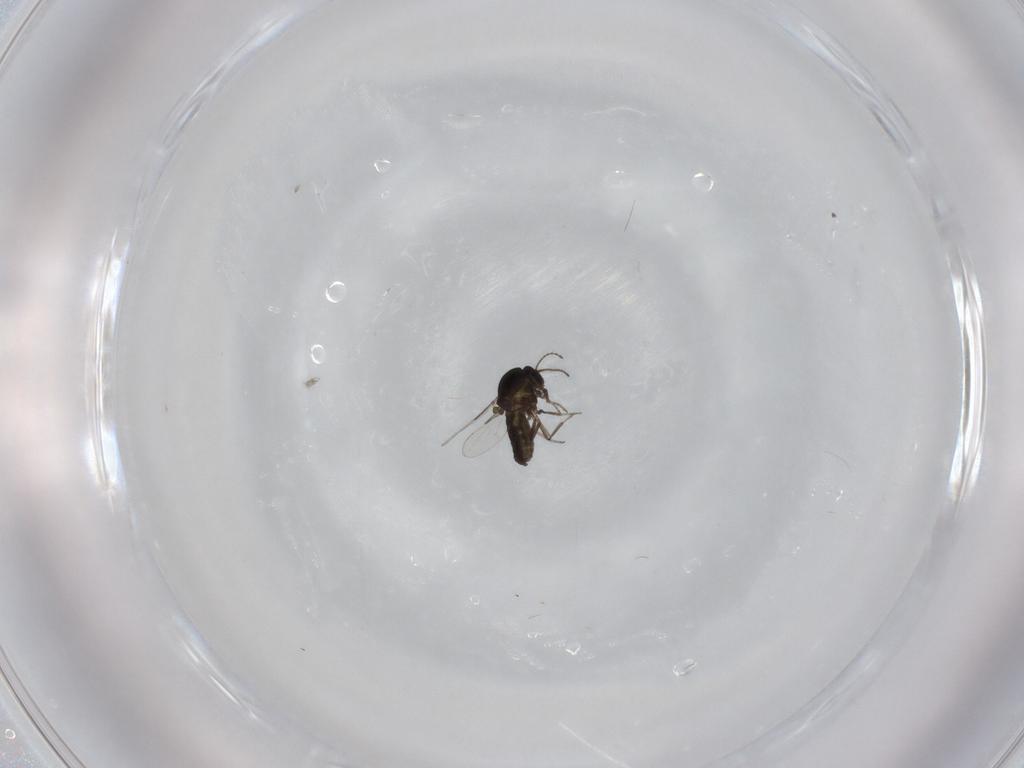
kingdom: Animalia
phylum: Arthropoda
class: Insecta
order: Diptera
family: Ceratopogonidae
